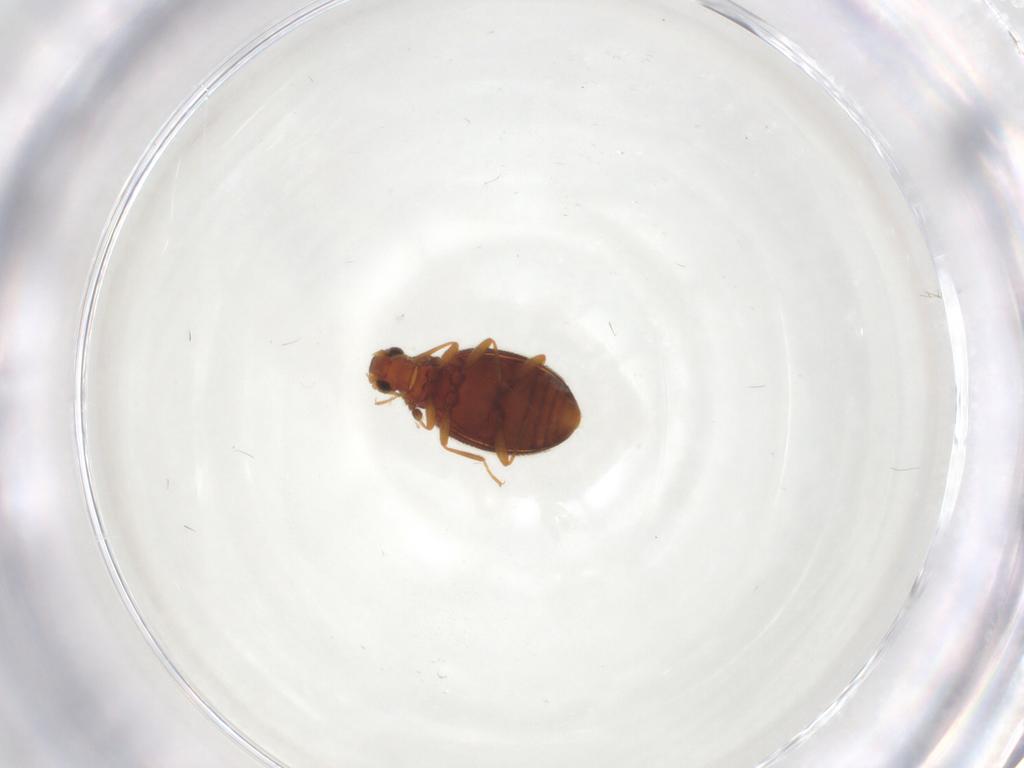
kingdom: Animalia
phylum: Arthropoda
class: Insecta
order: Coleoptera
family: Latridiidae
